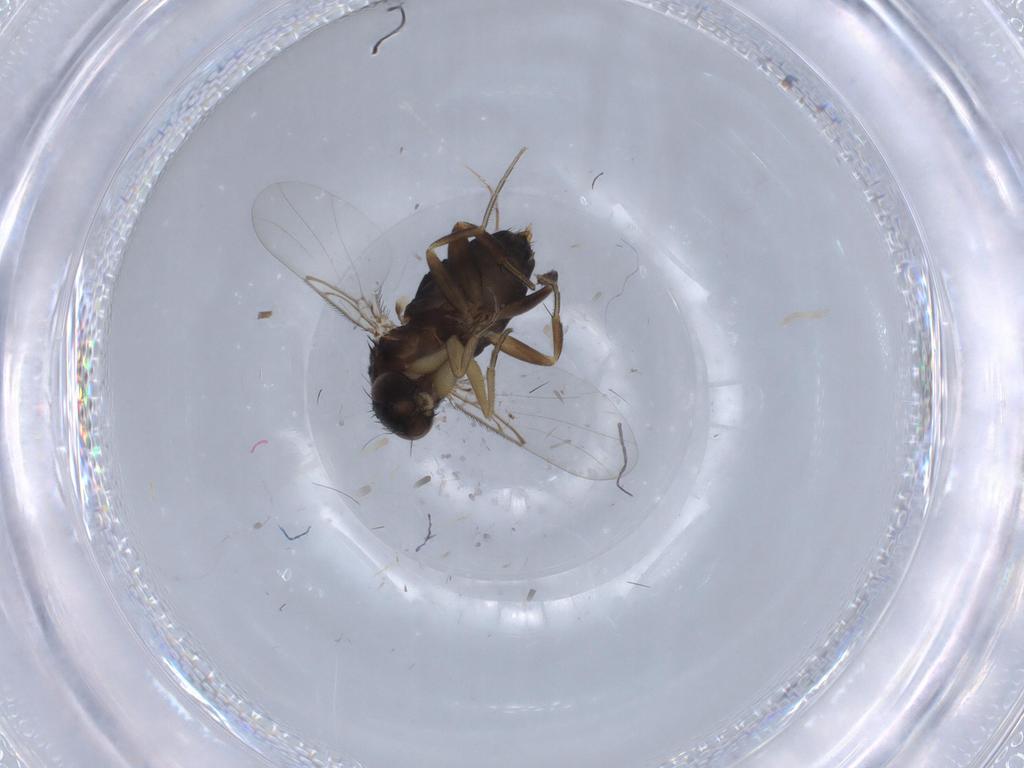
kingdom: Animalia
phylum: Arthropoda
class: Insecta
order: Diptera
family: Phoridae
